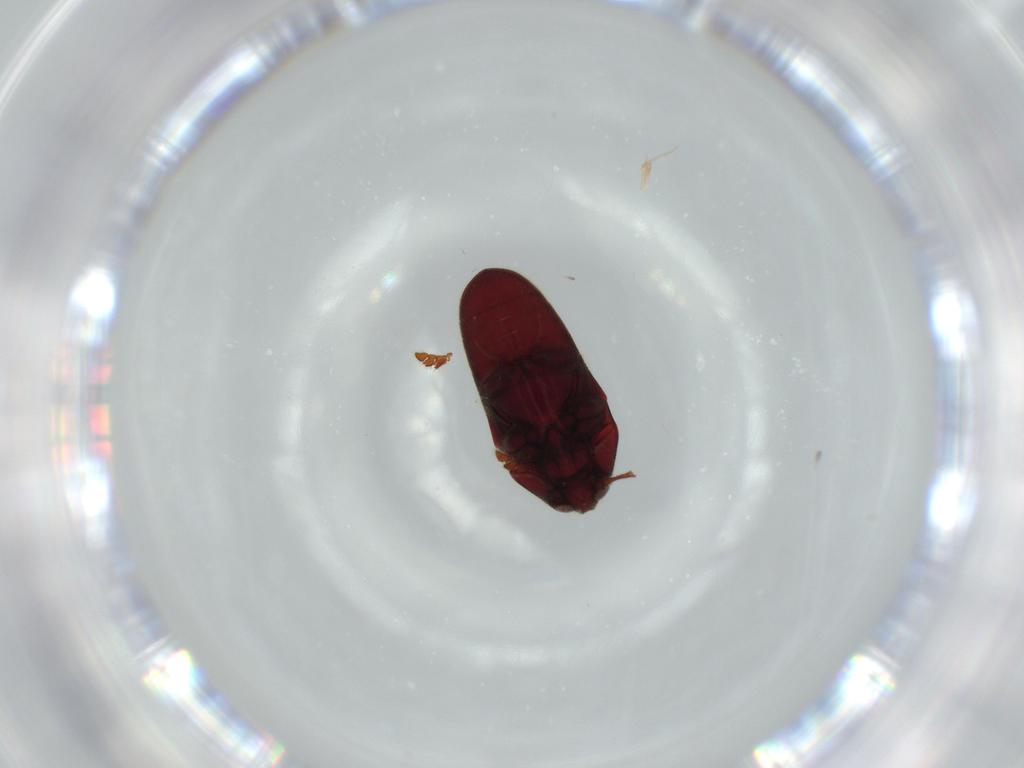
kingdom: Animalia
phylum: Arthropoda
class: Insecta
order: Coleoptera
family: Throscidae
